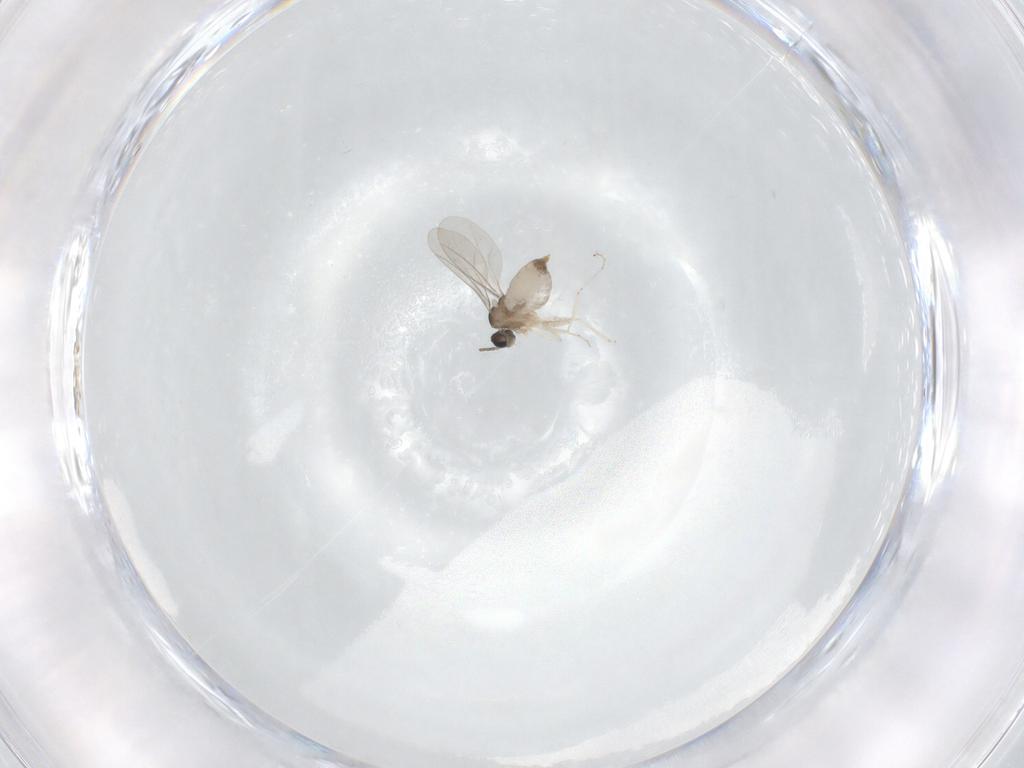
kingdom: Animalia
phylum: Arthropoda
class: Insecta
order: Diptera
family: Cecidomyiidae
